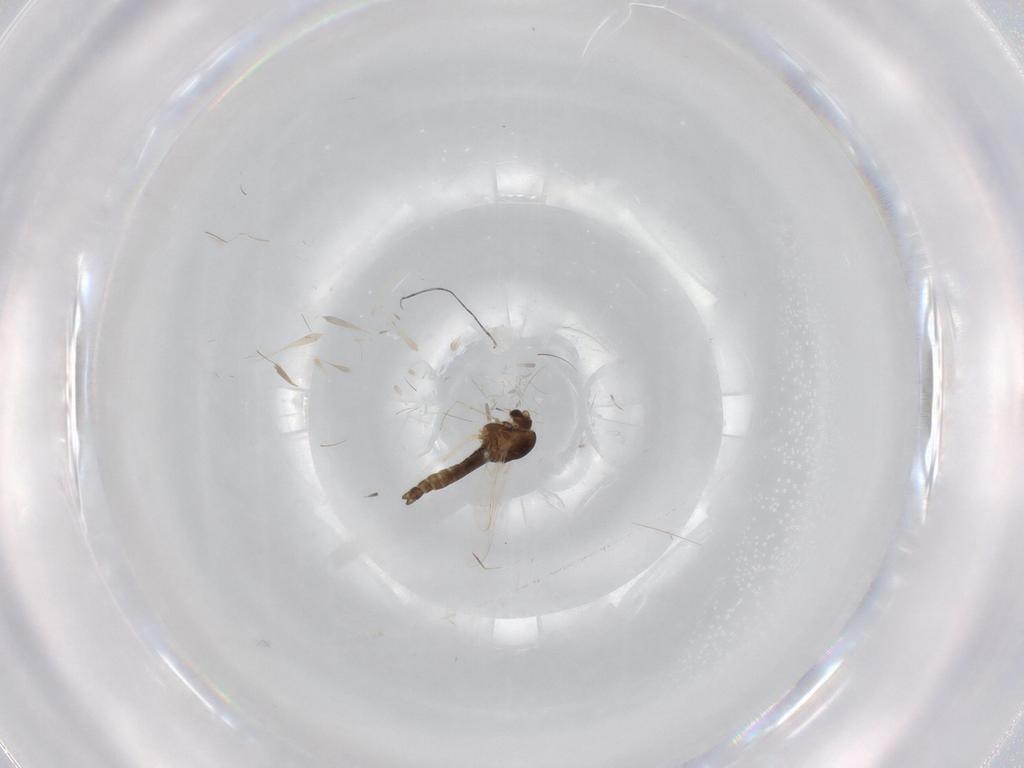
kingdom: Animalia
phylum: Arthropoda
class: Insecta
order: Diptera
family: Chironomidae
